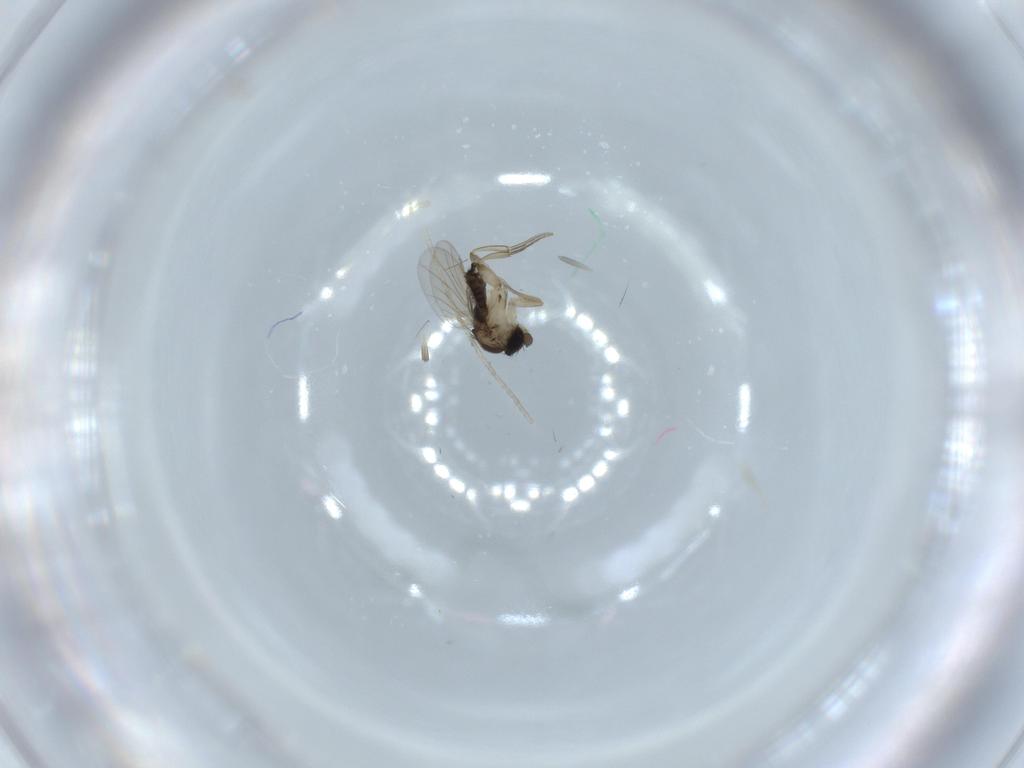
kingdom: Animalia
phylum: Arthropoda
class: Insecta
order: Diptera
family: Phoridae
